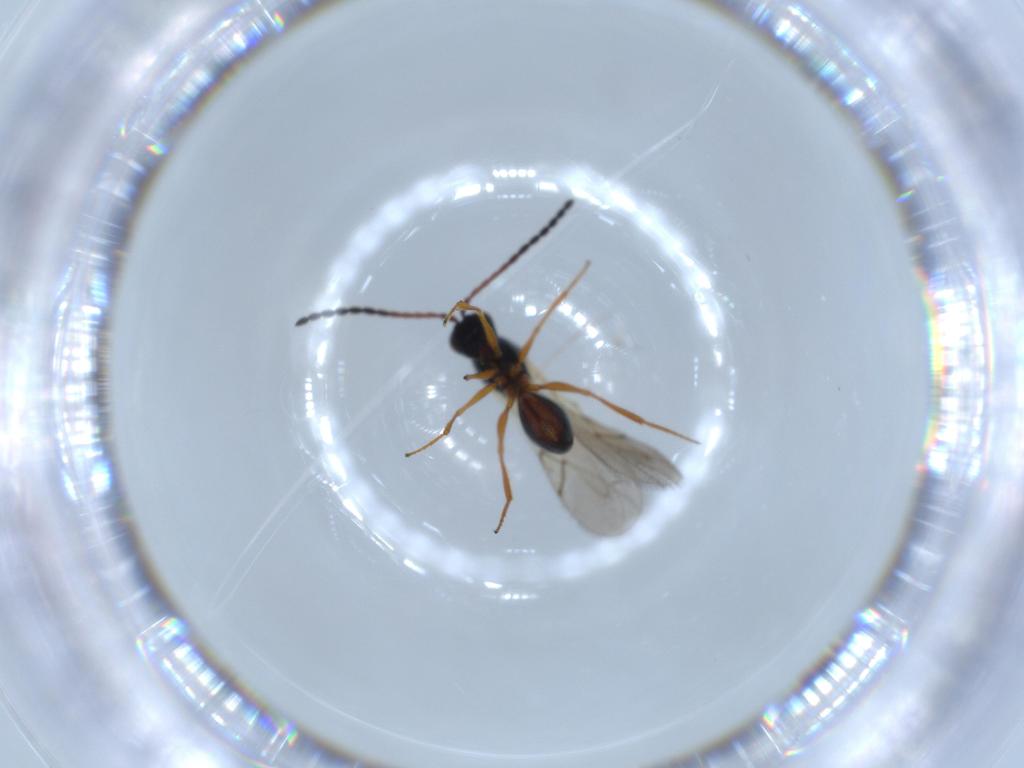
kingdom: Animalia
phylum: Arthropoda
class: Insecta
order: Hymenoptera
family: Figitidae
